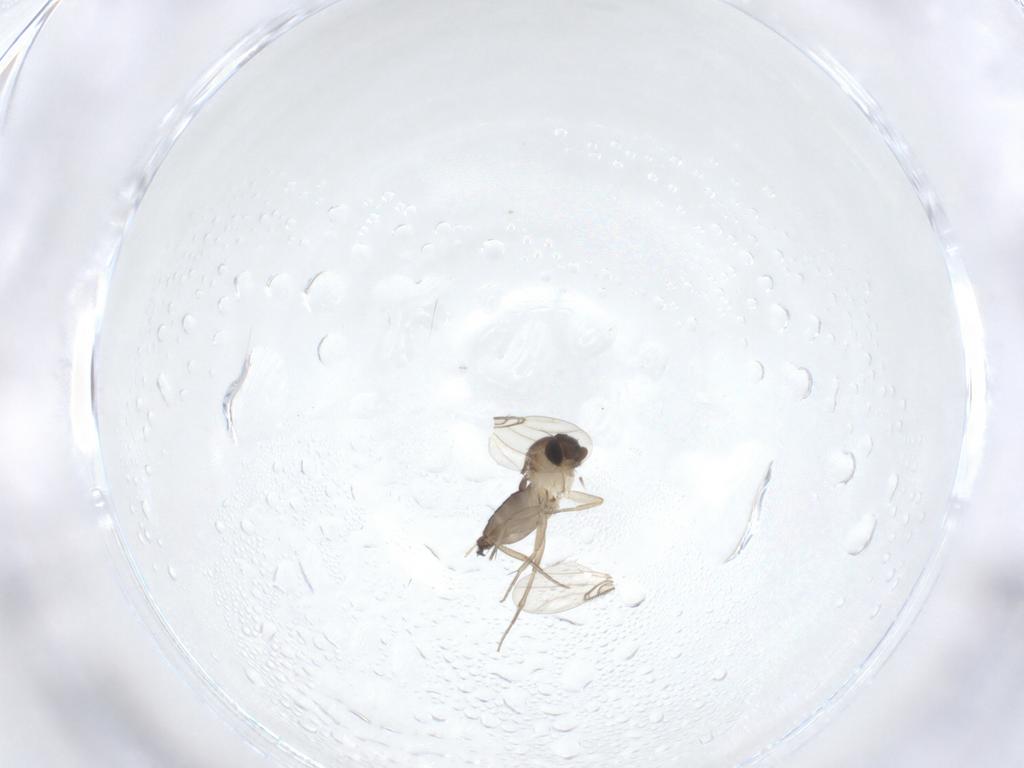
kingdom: Animalia
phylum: Arthropoda
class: Insecta
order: Diptera
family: Phoridae
